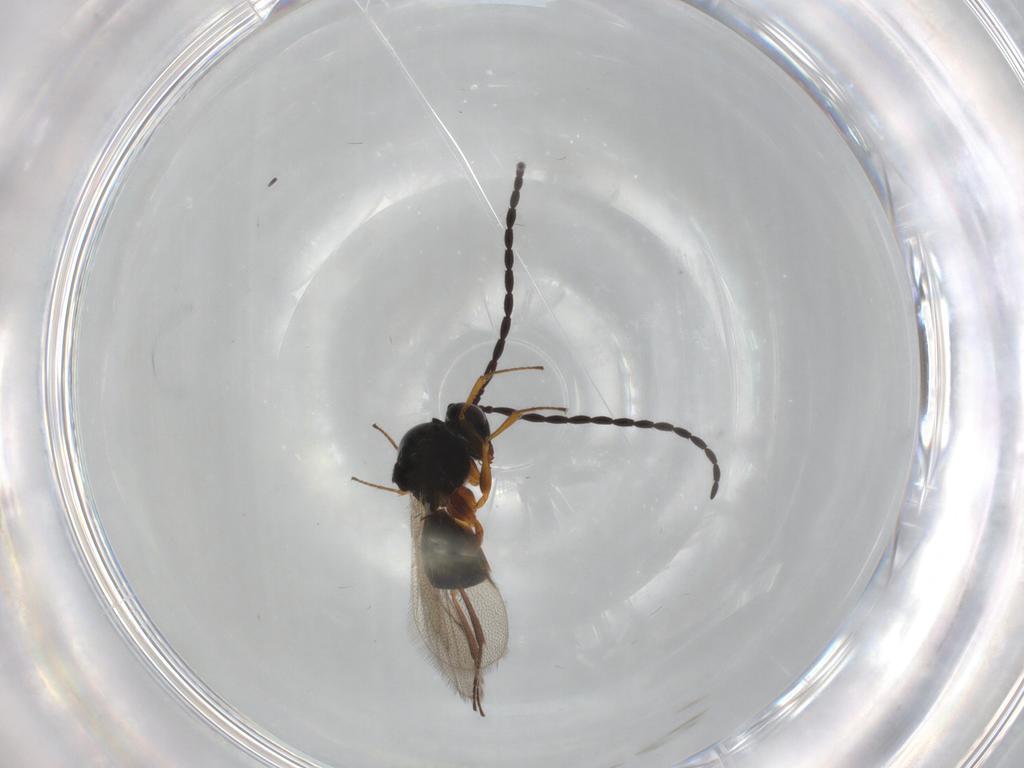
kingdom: Animalia
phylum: Arthropoda
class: Insecta
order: Hymenoptera
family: Figitidae
